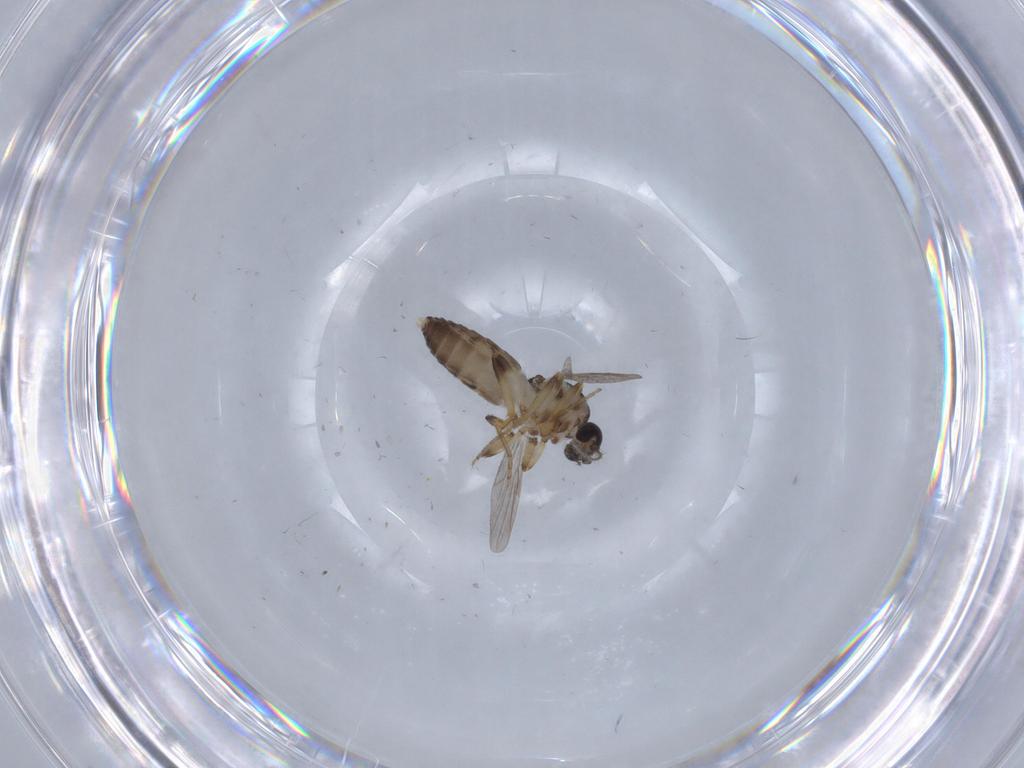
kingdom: Animalia
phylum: Arthropoda
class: Insecta
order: Diptera
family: Ceratopogonidae
